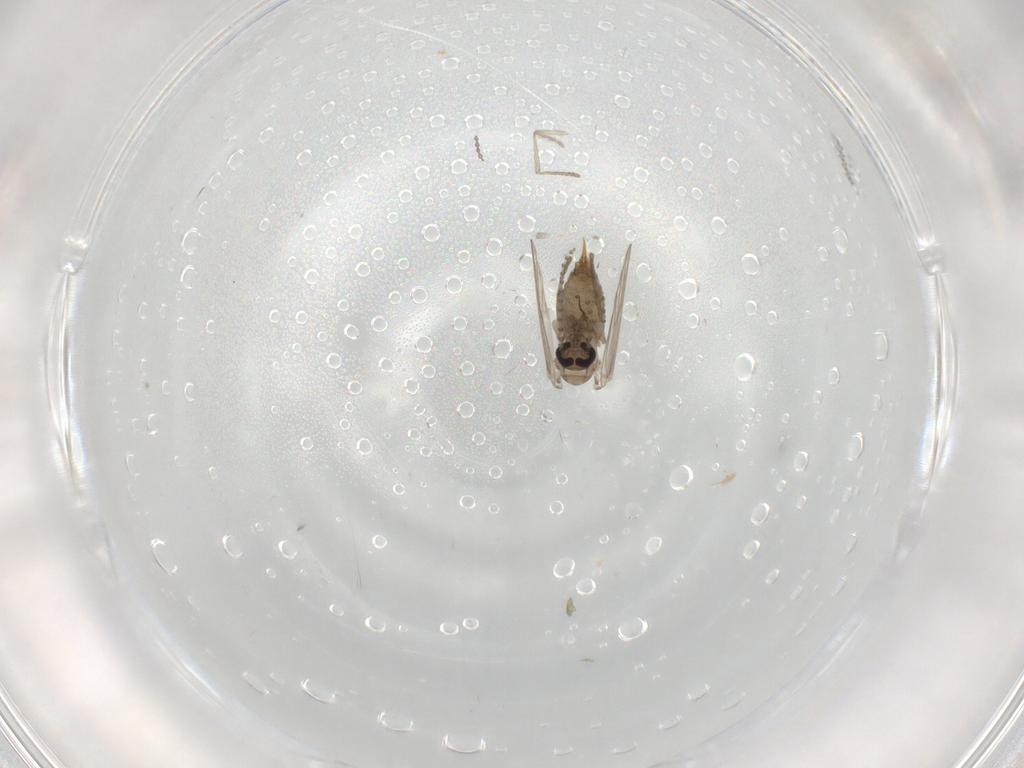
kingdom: Animalia
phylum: Arthropoda
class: Insecta
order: Diptera
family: Psychodidae
